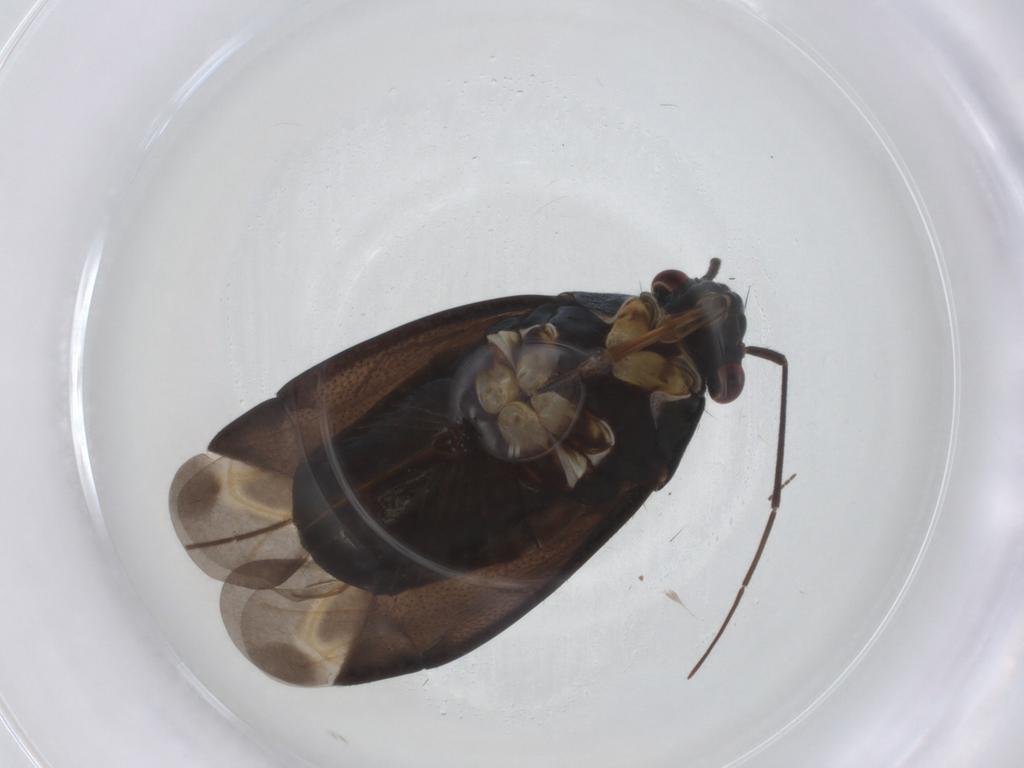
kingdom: Animalia
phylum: Arthropoda
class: Insecta
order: Hemiptera
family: Miridae
